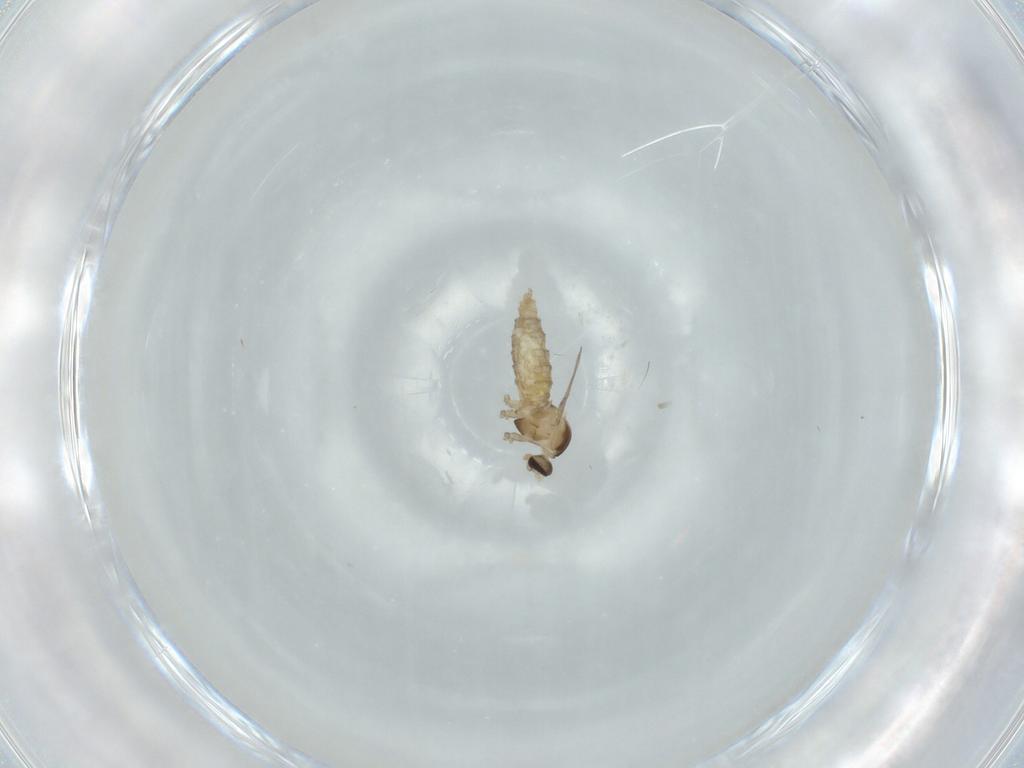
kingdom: Animalia
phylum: Arthropoda
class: Insecta
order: Diptera
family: Cecidomyiidae
